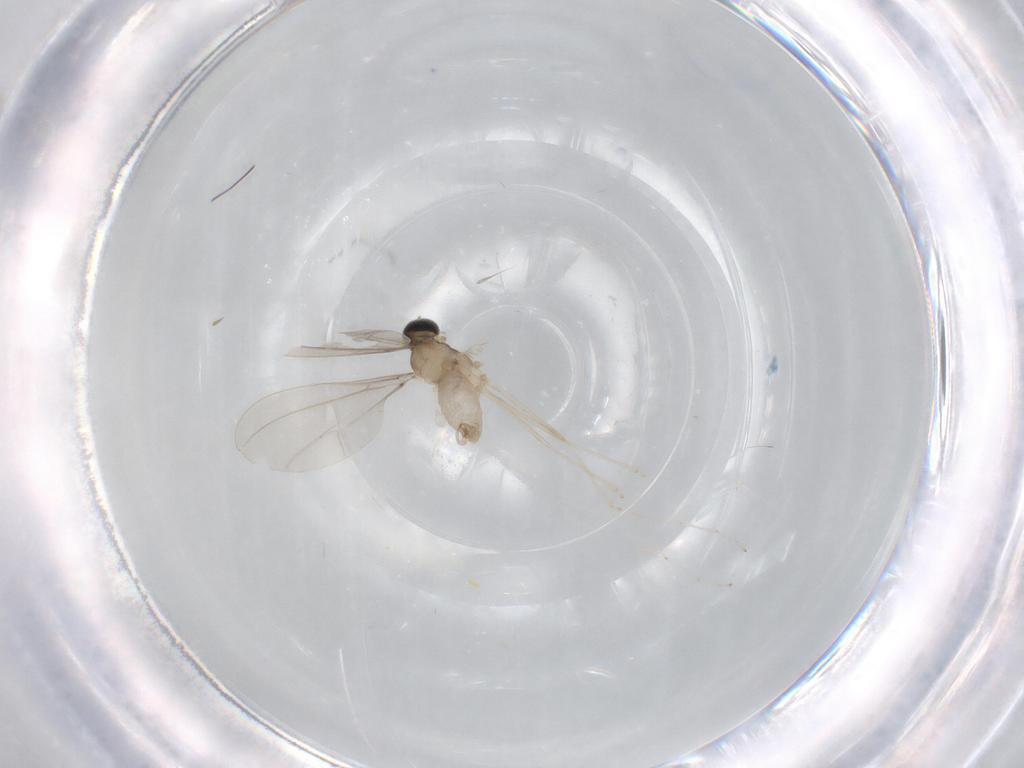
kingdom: Animalia
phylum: Arthropoda
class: Insecta
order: Diptera
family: Phoridae
